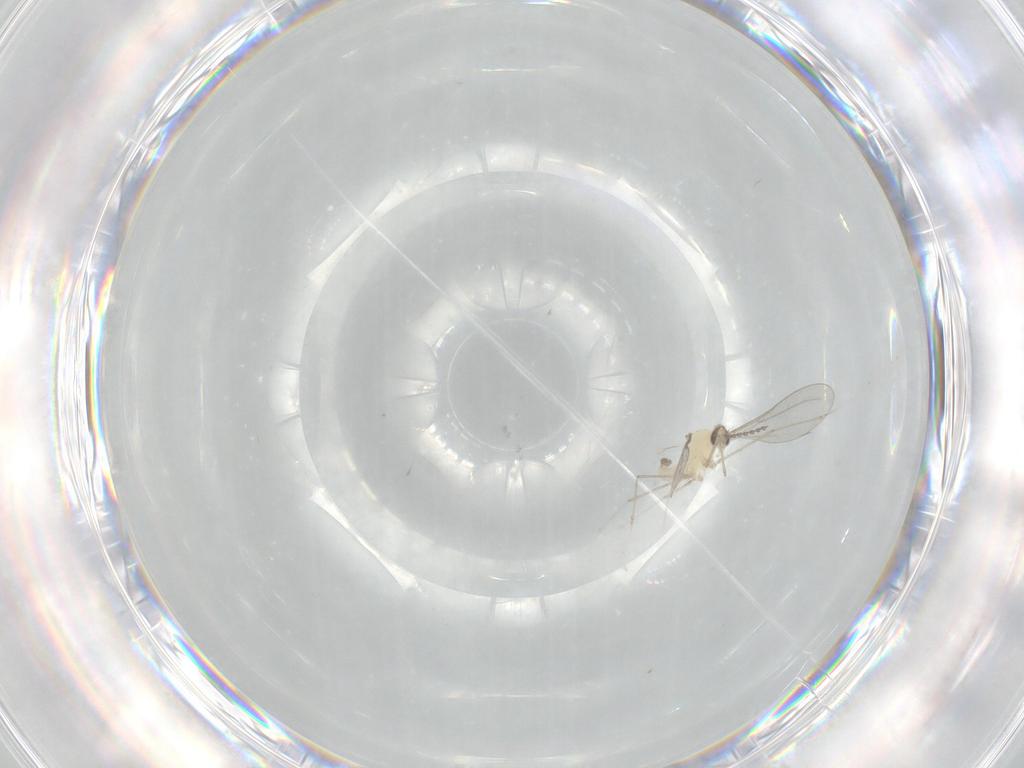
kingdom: Animalia
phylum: Arthropoda
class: Insecta
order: Diptera
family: Cecidomyiidae
